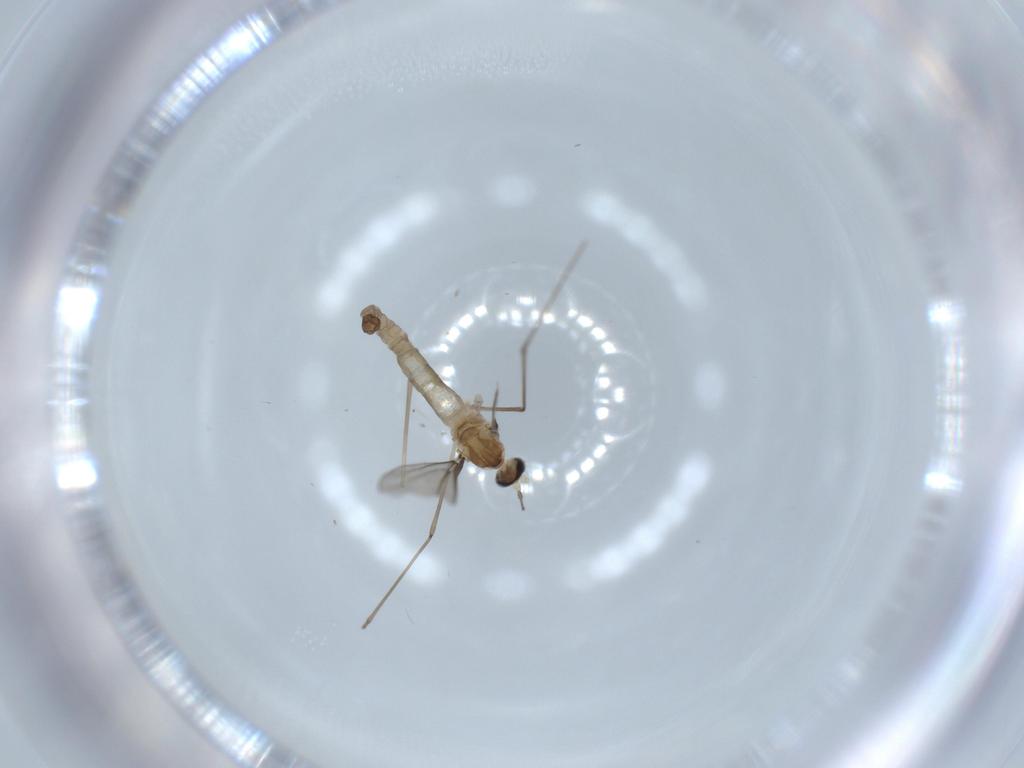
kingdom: Animalia
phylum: Arthropoda
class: Insecta
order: Diptera
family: Cecidomyiidae
